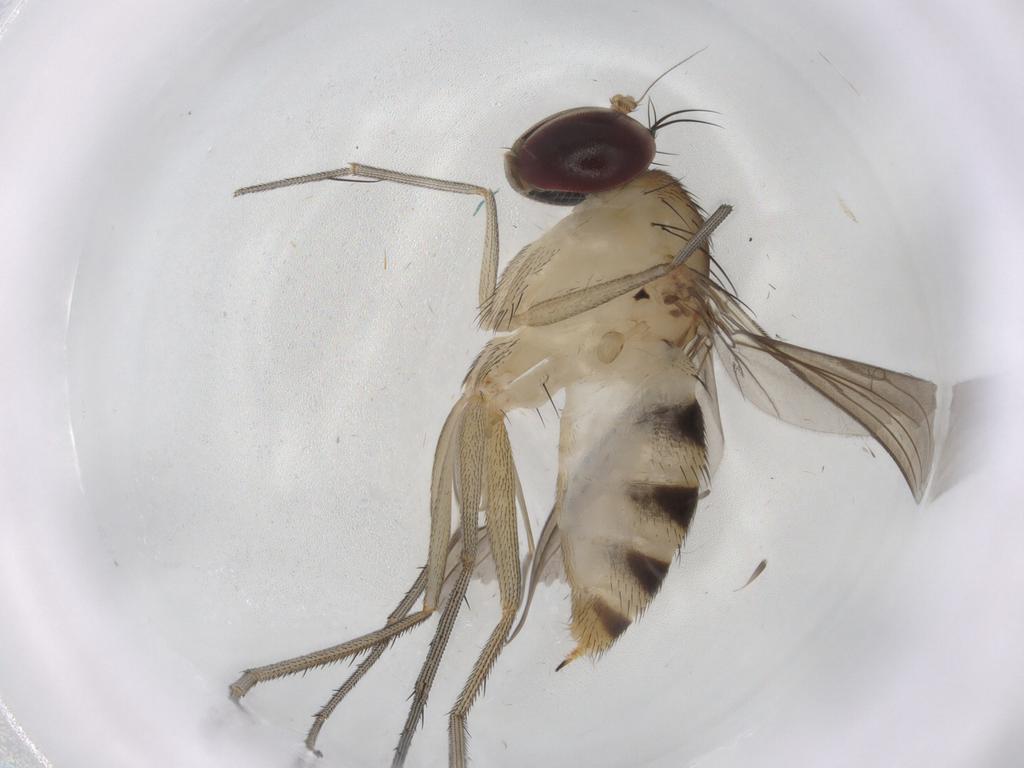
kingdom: Animalia
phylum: Arthropoda
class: Insecta
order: Diptera
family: Dolichopodidae
